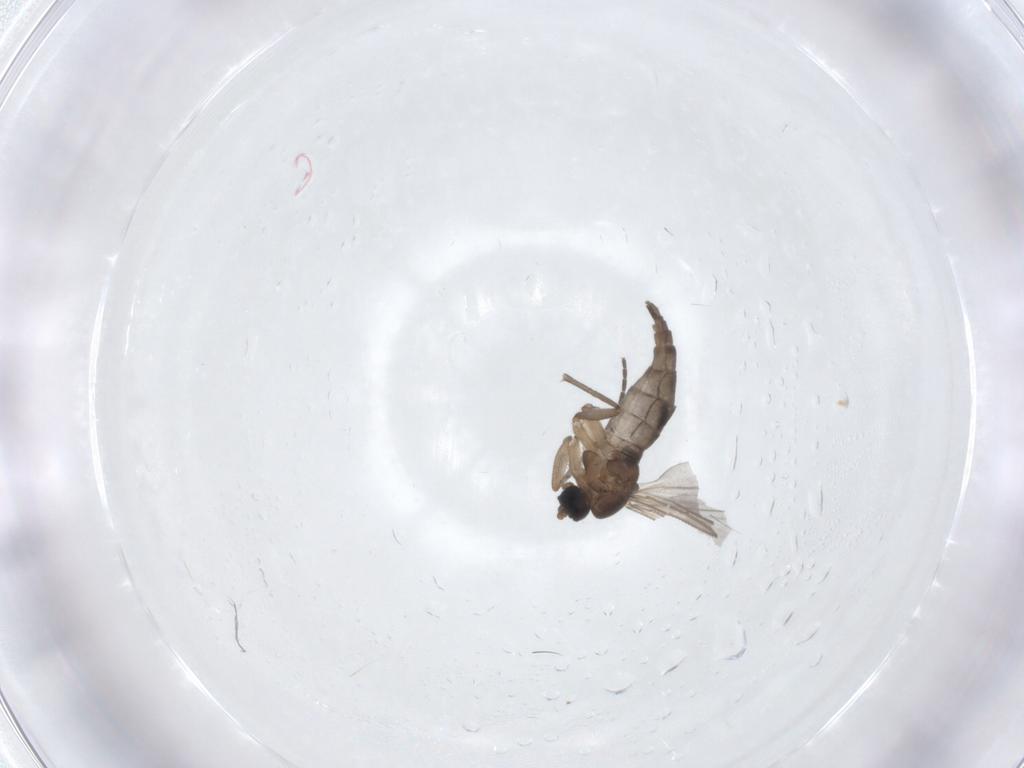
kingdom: Animalia
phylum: Arthropoda
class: Insecta
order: Diptera
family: Sciaridae
